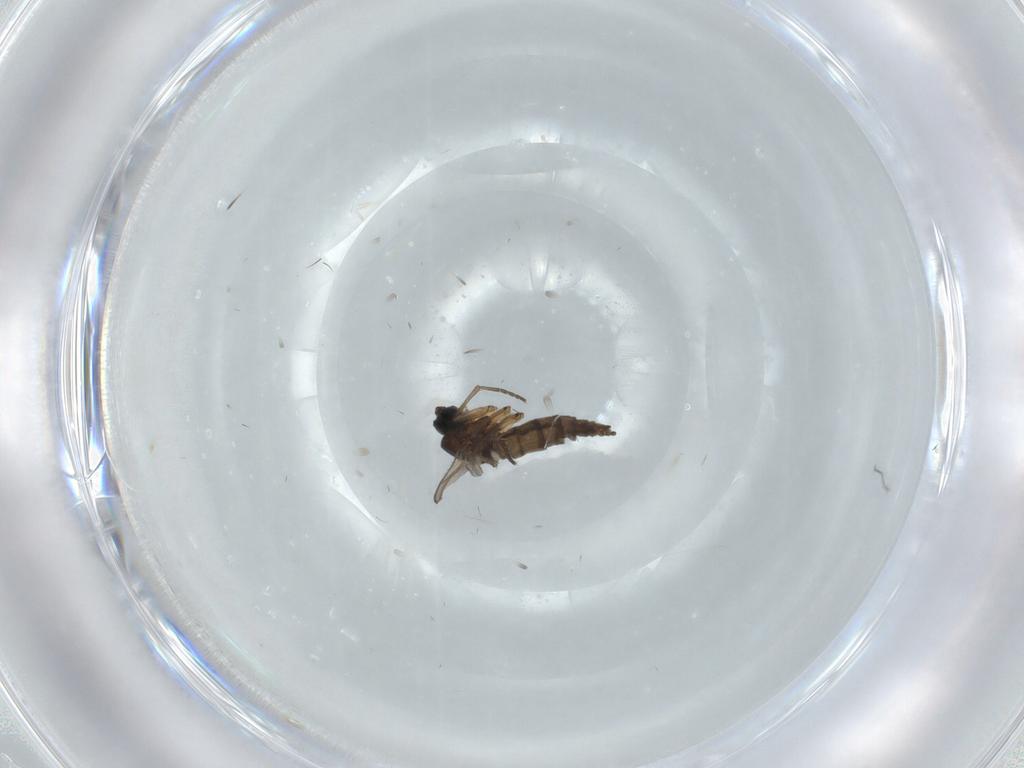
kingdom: Animalia
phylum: Arthropoda
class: Insecta
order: Diptera
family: Sciaridae
